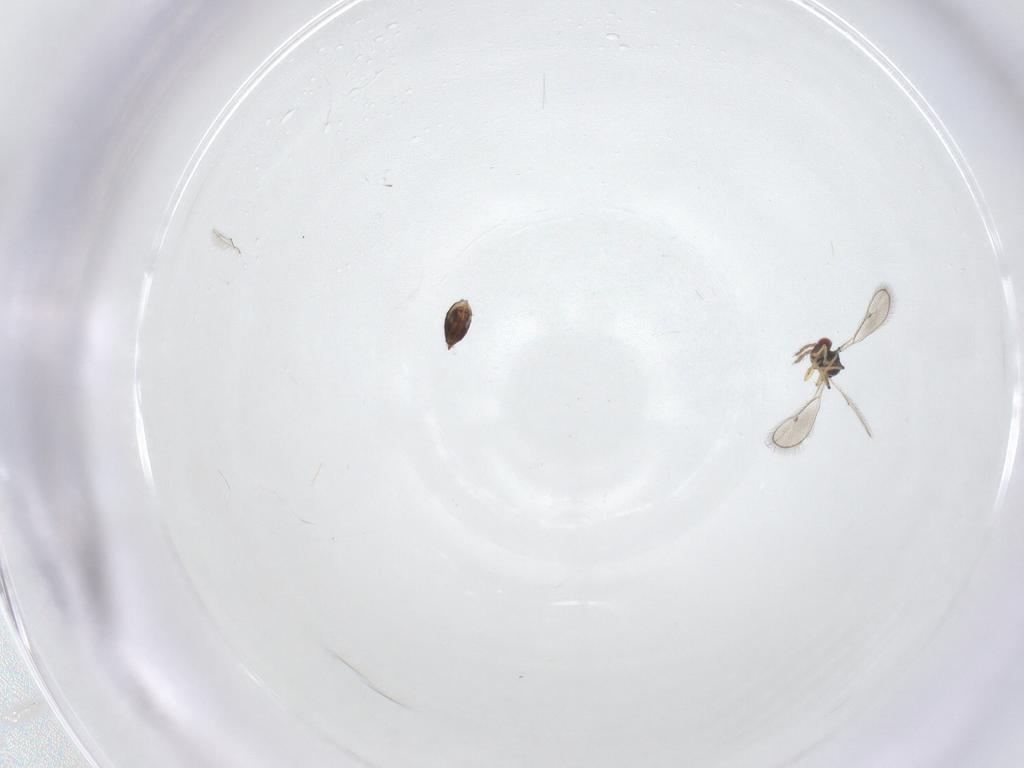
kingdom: Animalia
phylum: Arthropoda
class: Insecta
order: Hymenoptera
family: Eulophidae
